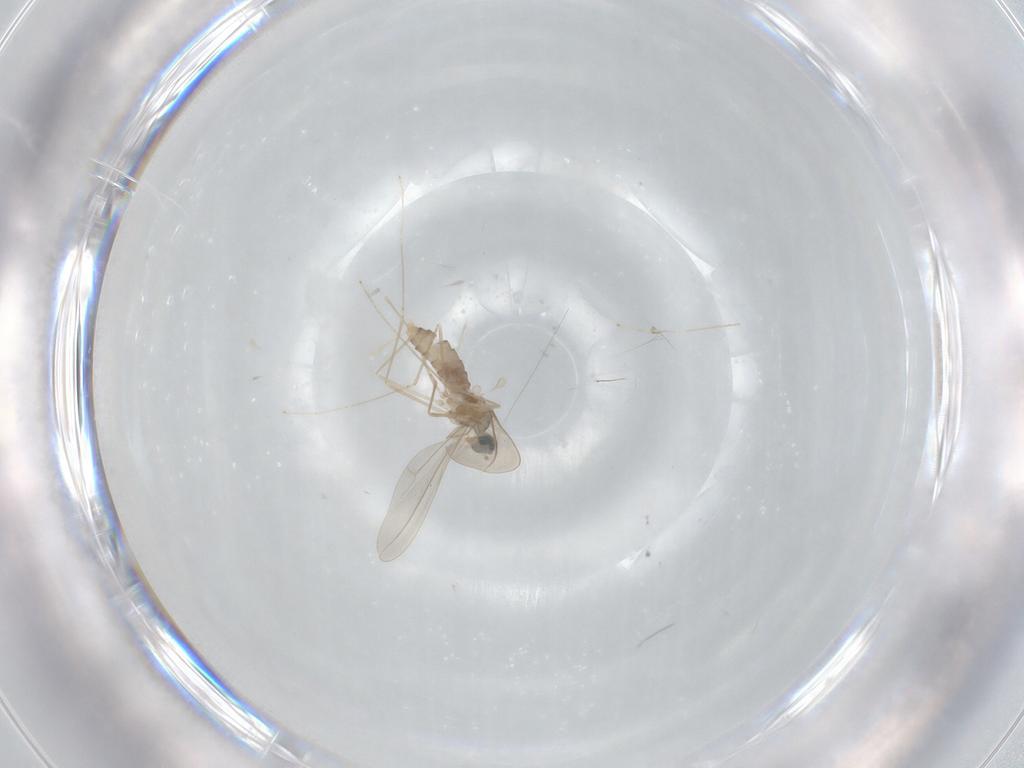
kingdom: Animalia
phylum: Arthropoda
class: Insecta
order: Diptera
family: Cecidomyiidae
